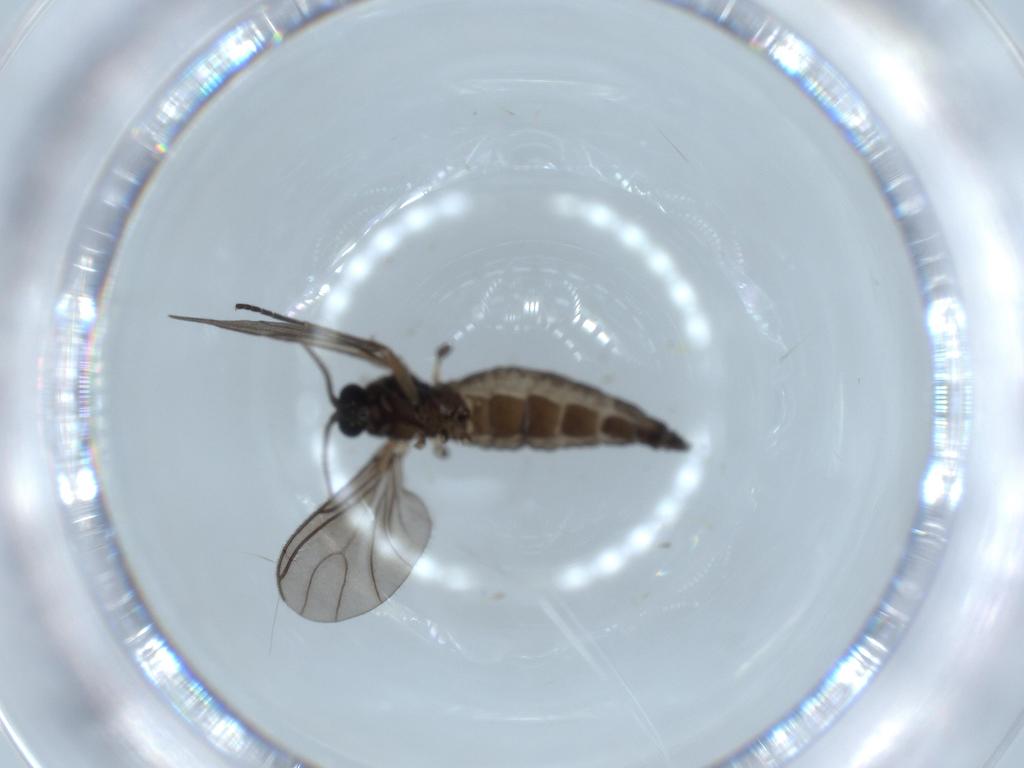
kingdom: Animalia
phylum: Arthropoda
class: Insecta
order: Diptera
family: Sciaridae
